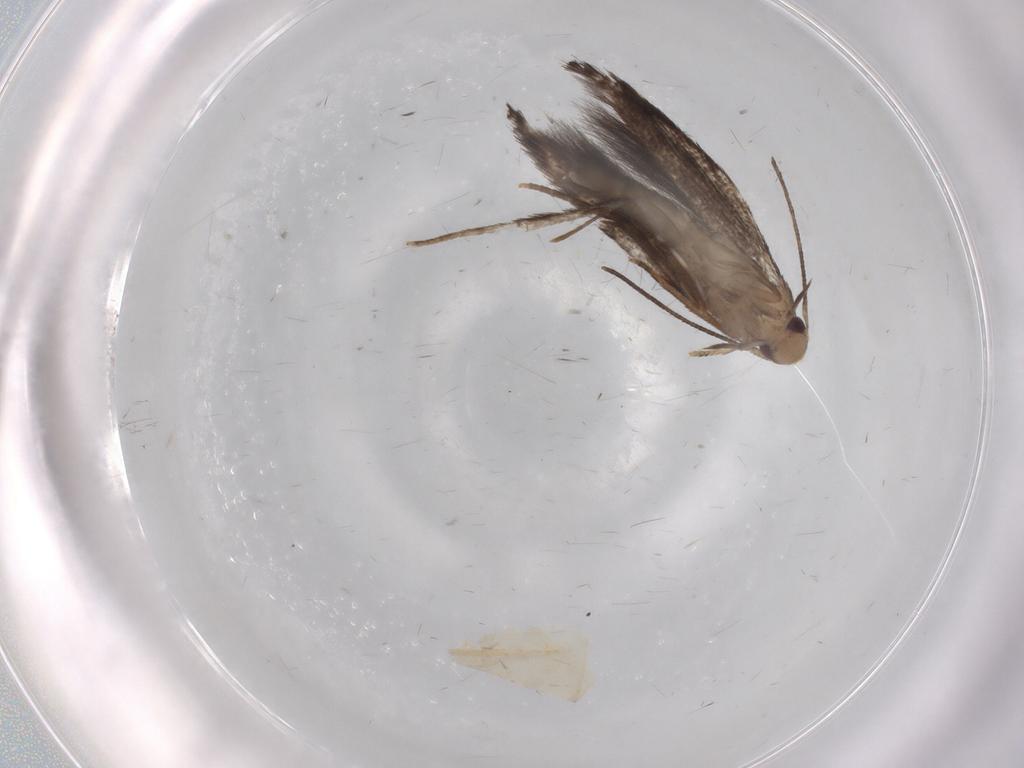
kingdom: Animalia
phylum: Arthropoda
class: Insecta
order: Lepidoptera
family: Gelechiidae
